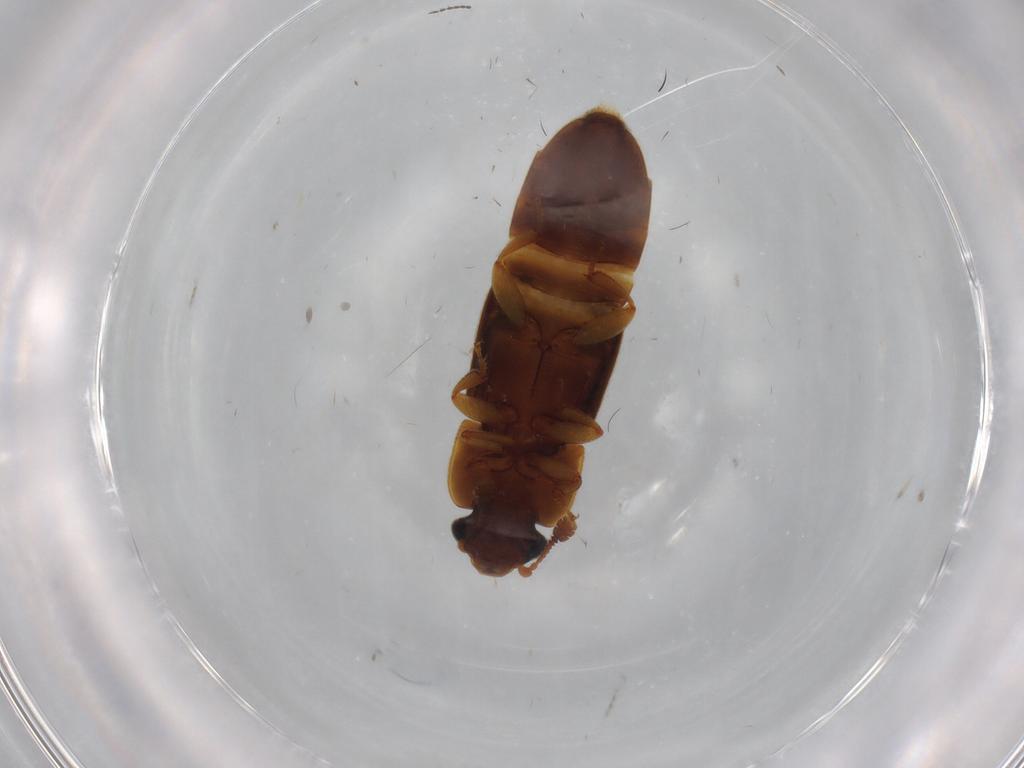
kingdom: Animalia
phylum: Arthropoda
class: Insecta
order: Coleoptera
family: Nitidulidae
